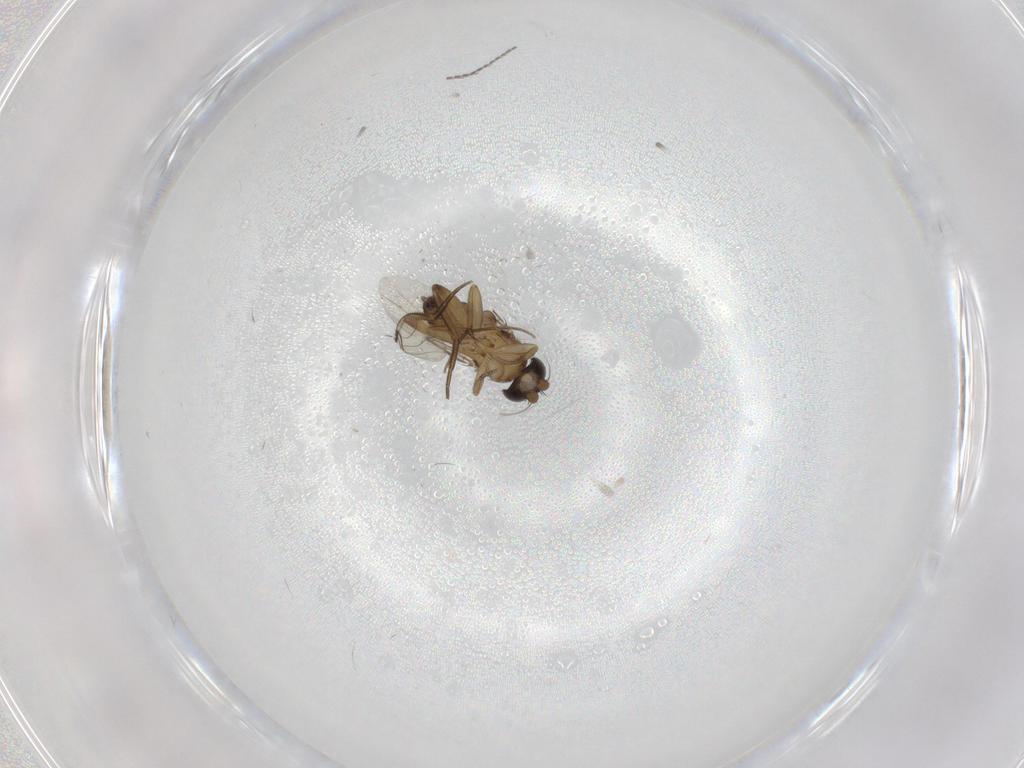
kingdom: Animalia
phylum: Arthropoda
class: Insecta
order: Diptera
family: Phoridae
